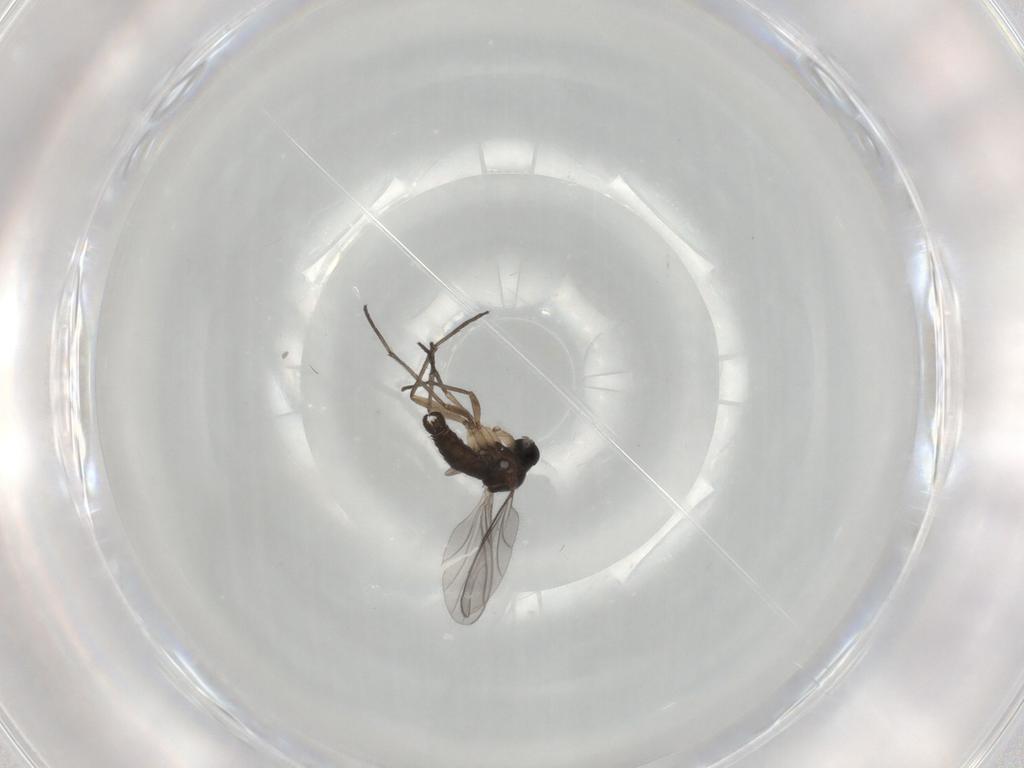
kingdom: Animalia
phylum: Arthropoda
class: Insecta
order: Diptera
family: Sciaridae
